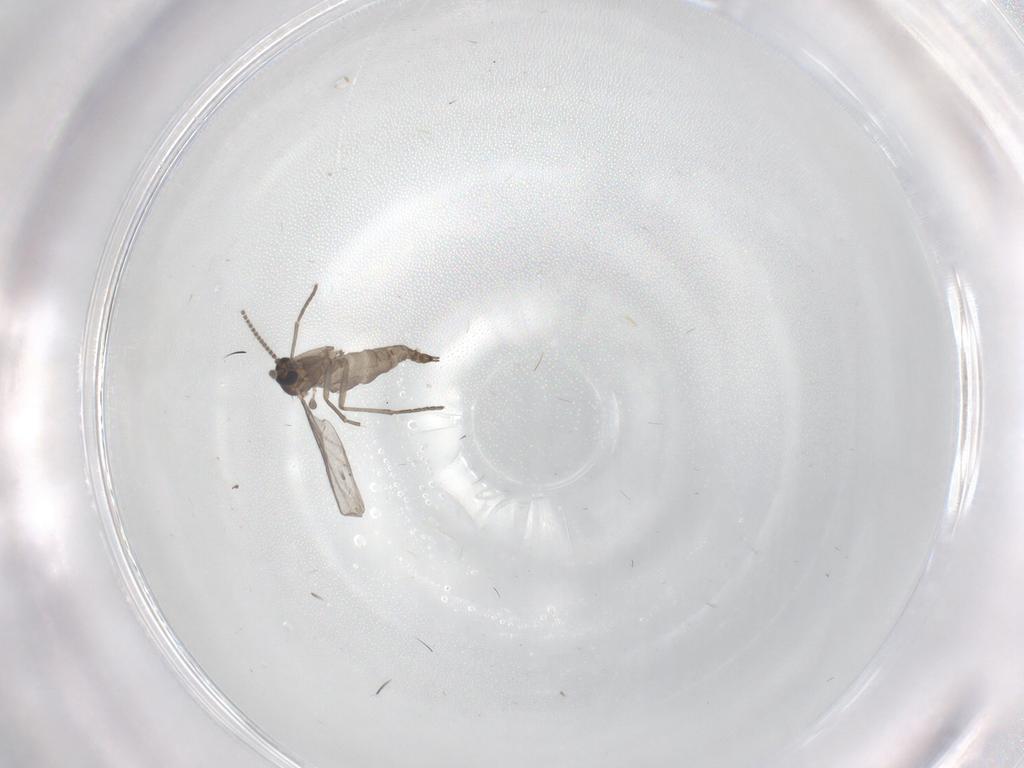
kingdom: Animalia
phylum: Arthropoda
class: Insecta
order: Diptera
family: Sciaridae
